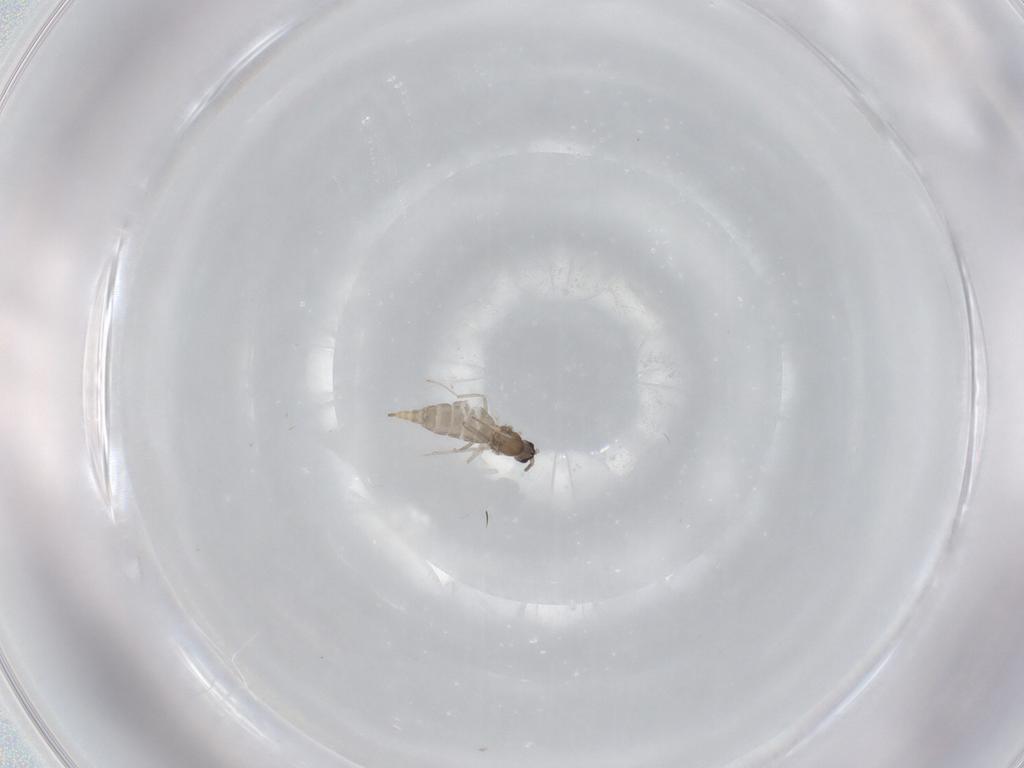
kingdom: Animalia
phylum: Arthropoda
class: Insecta
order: Diptera
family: Cecidomyiidae
